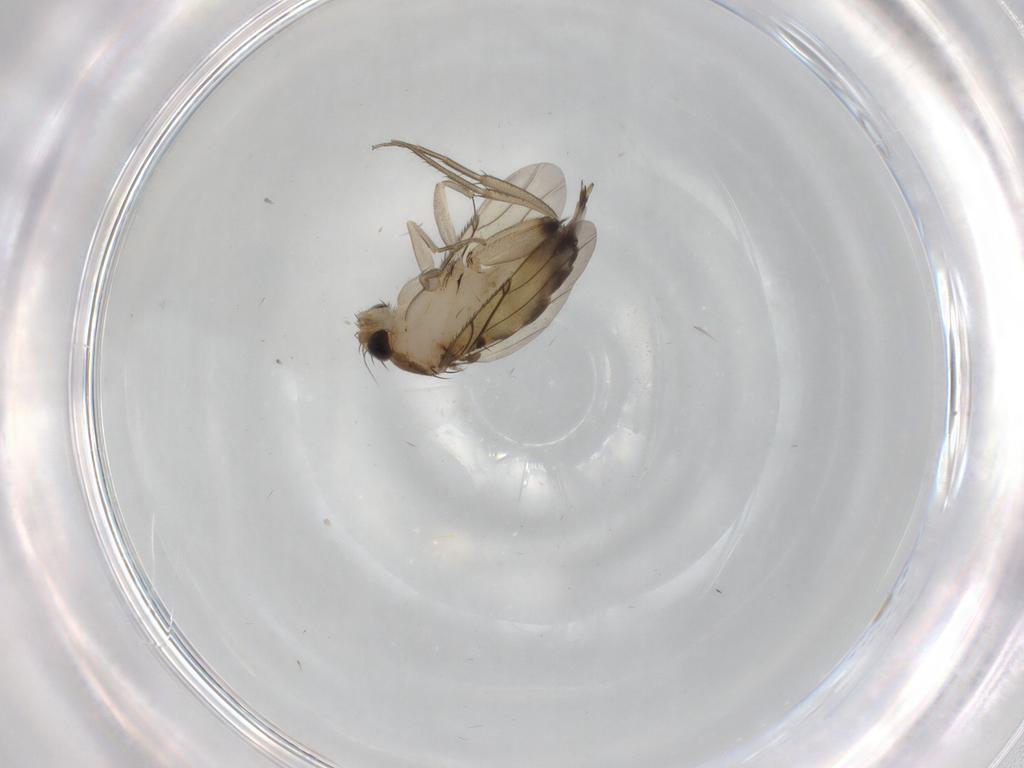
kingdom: Animalia
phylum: Arthropoda
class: Insecta
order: Diptera
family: Phoridae
